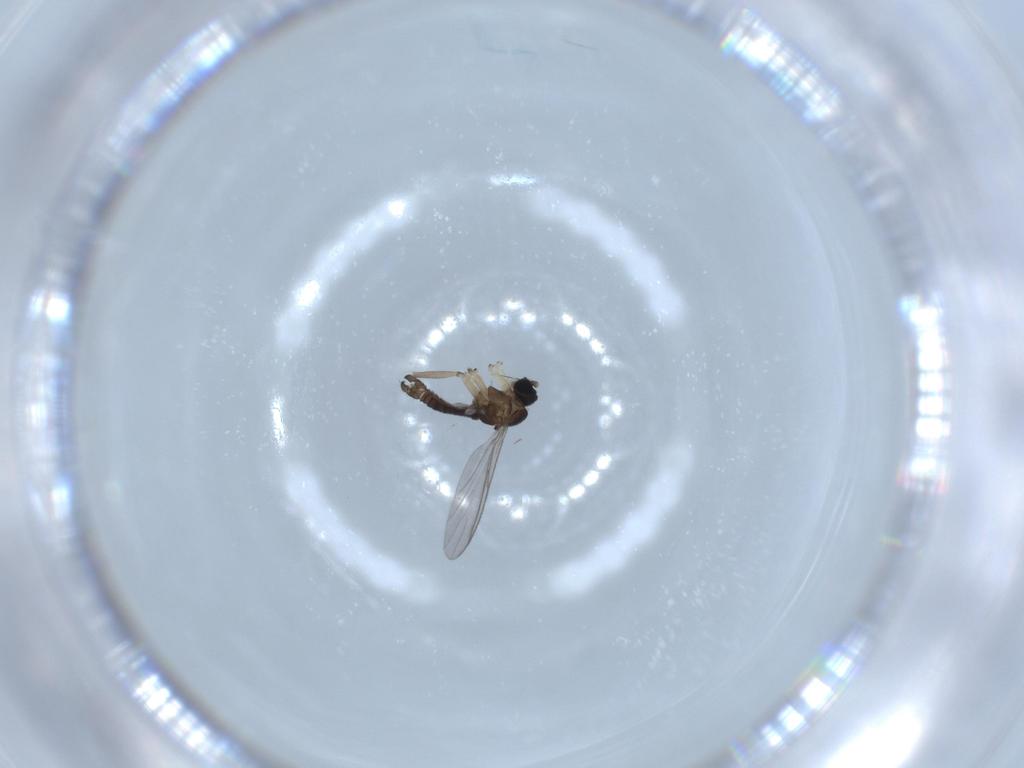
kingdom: Animalia
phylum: Arthropoda
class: Insecta
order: Diptera
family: Sciaridae
